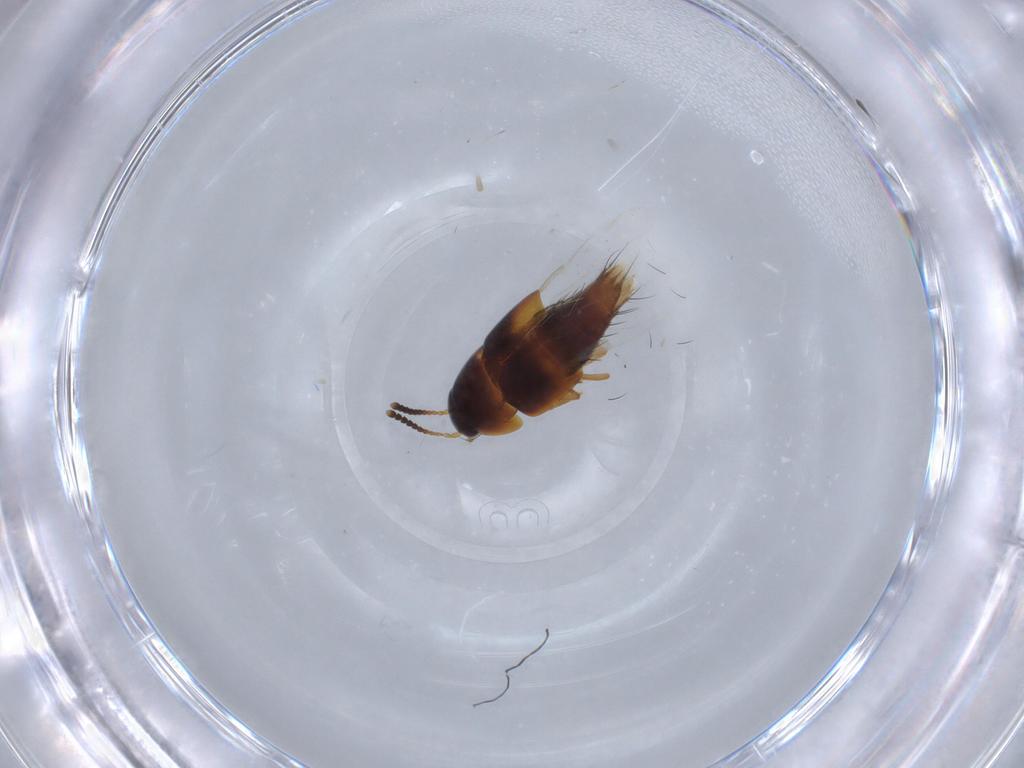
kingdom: Animalia
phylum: Arthropoda
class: Insecta
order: Coleoptera
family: Staphylinidae
